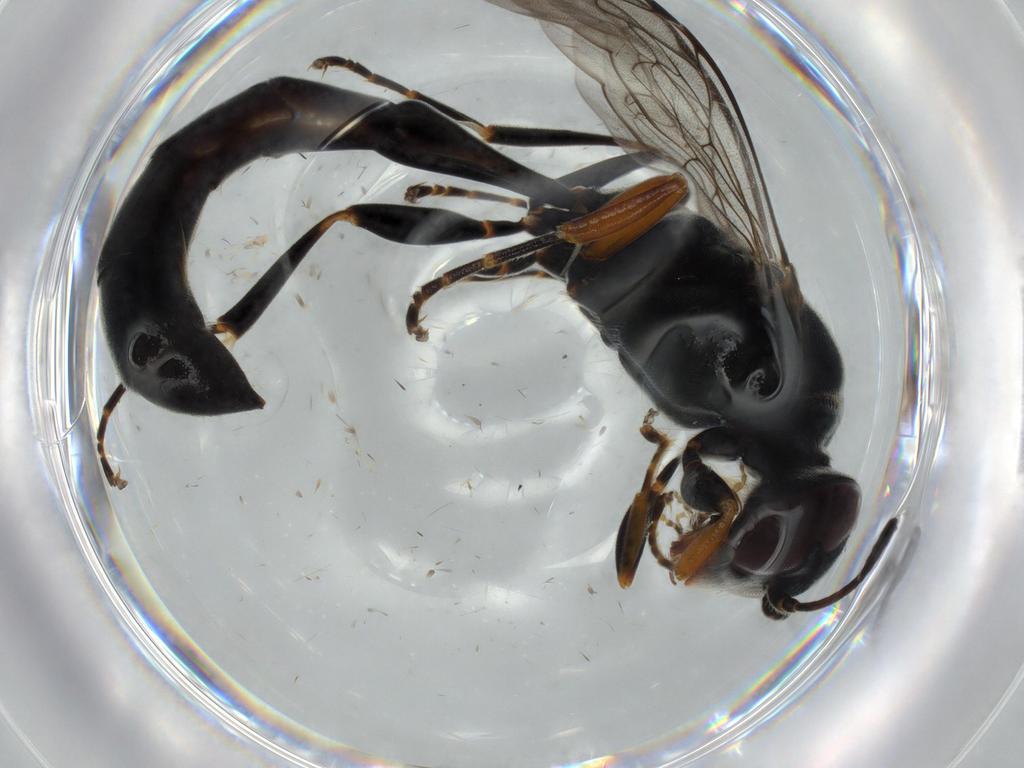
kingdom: Animalia
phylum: Arthropoda
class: Insecta
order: Hymenoptera
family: Crabronidae
